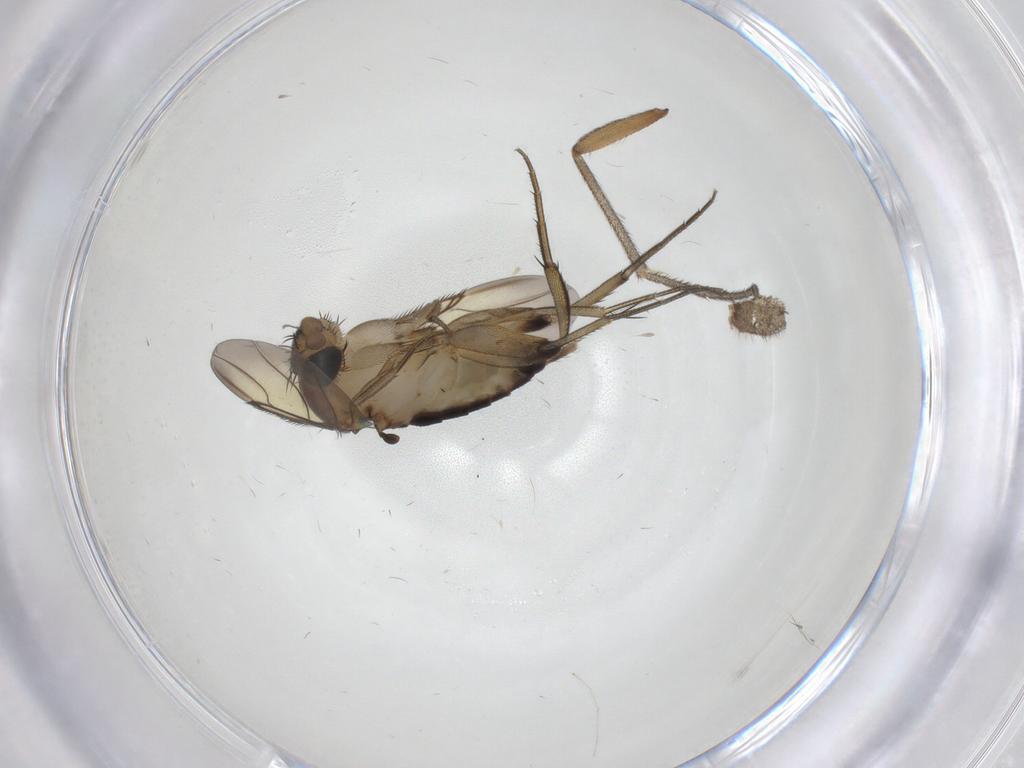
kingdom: Animalia
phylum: Arthropoda
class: Insecta
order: Diptera
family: Phoridae
